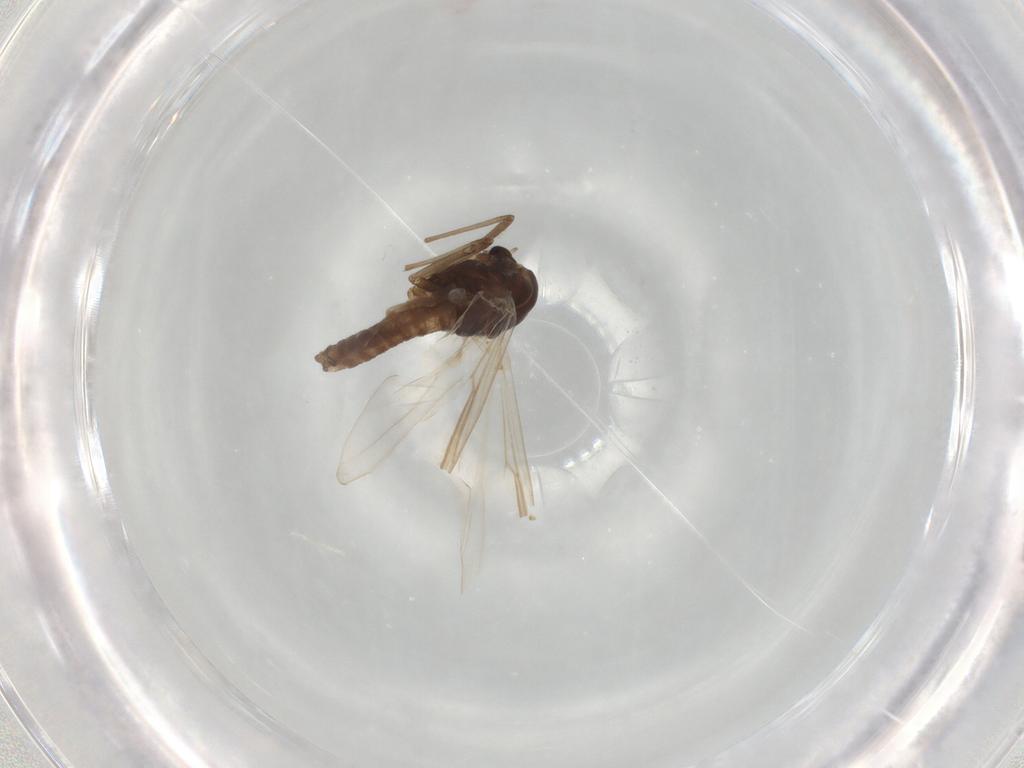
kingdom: Animalia
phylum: Arthropoda
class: Insecta
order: Diptera
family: Chironomidae
